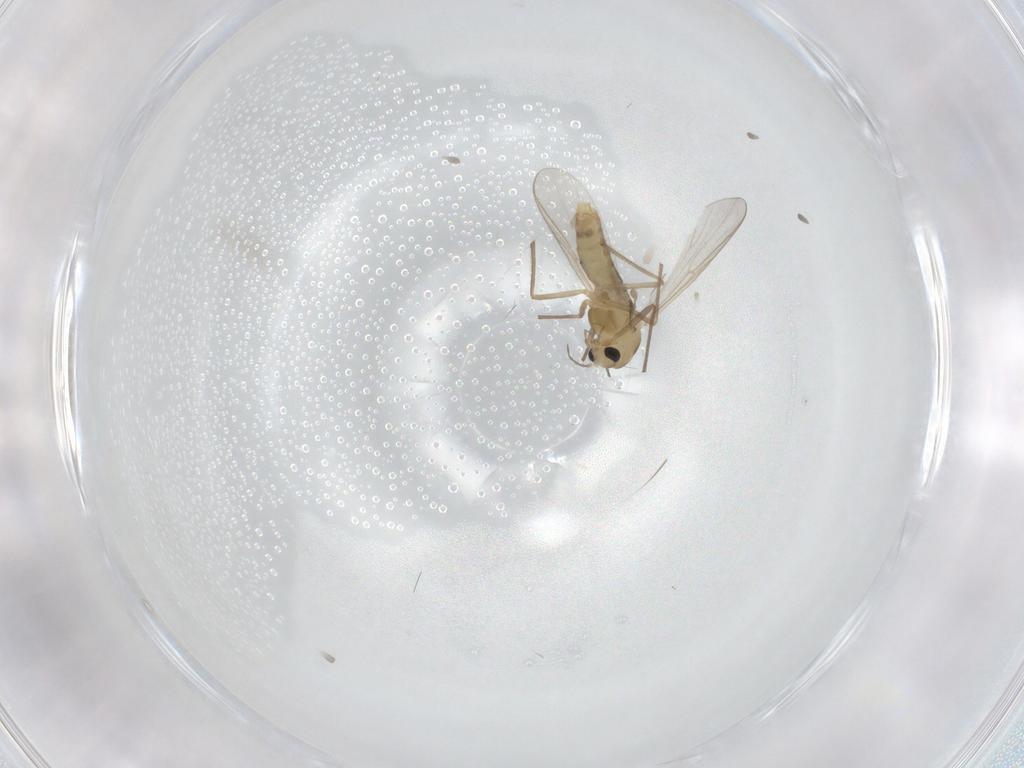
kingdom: Animalia
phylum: Arthropoda
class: Insecta
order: Diptera
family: Chironomidae
